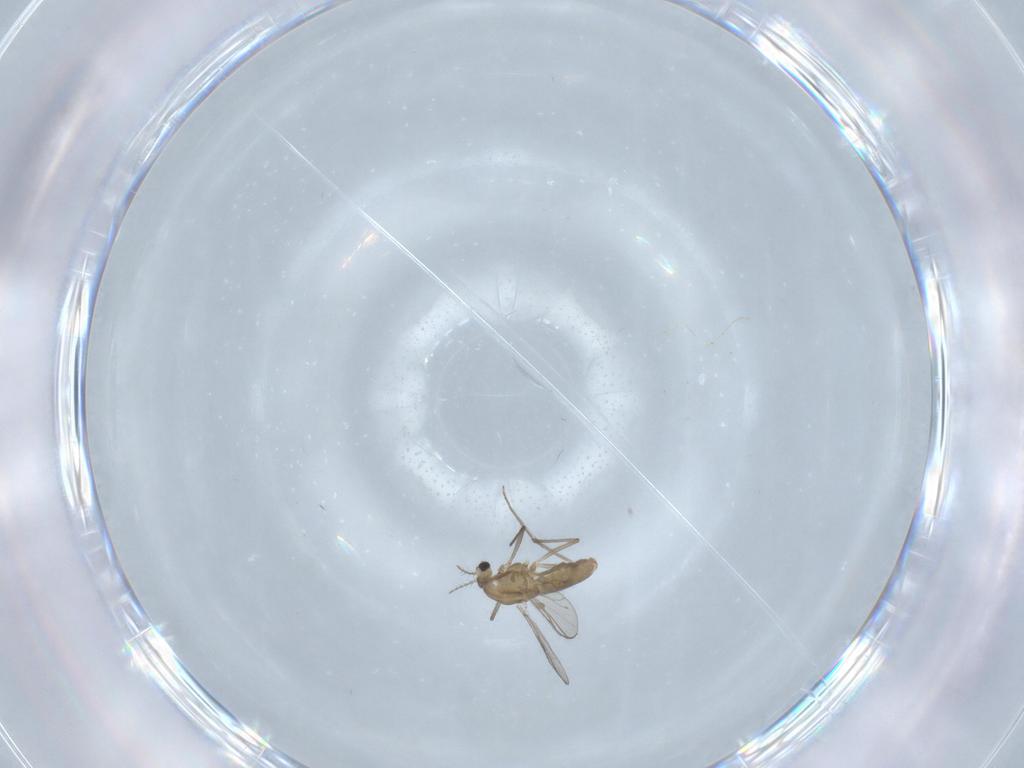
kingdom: Animalia
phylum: Arthropoda
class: Insecta
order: Diptera
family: Chironomidae
